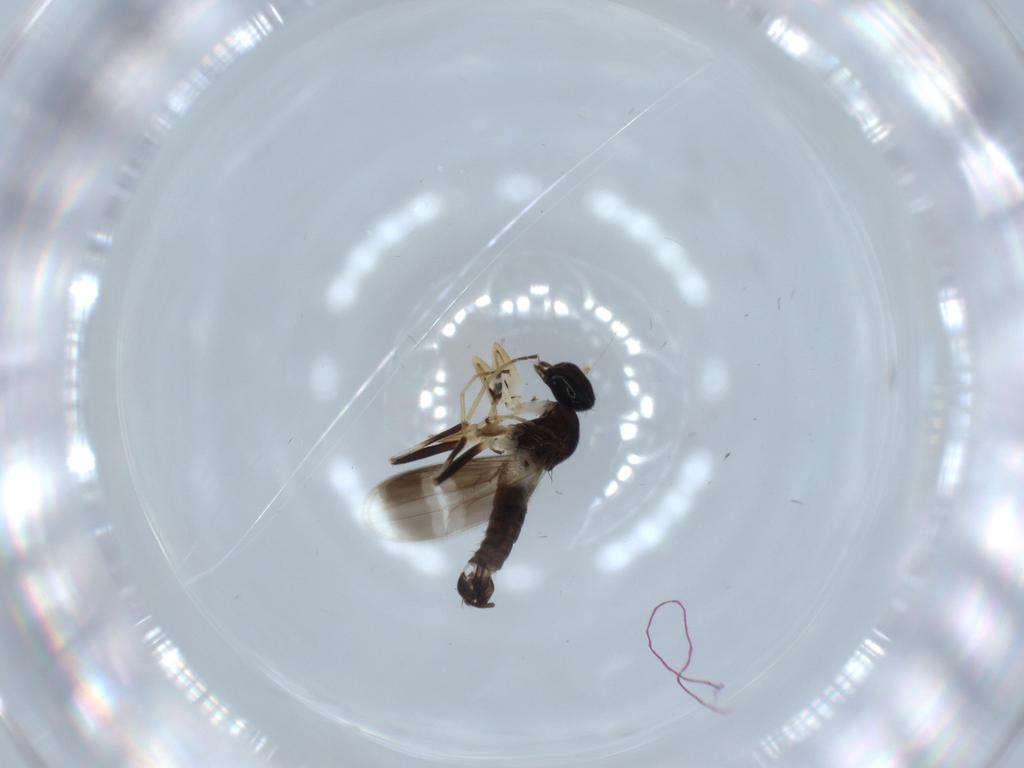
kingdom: Animalia
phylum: Arthropoda
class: Insecta
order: Diptera
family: Hybotidae
